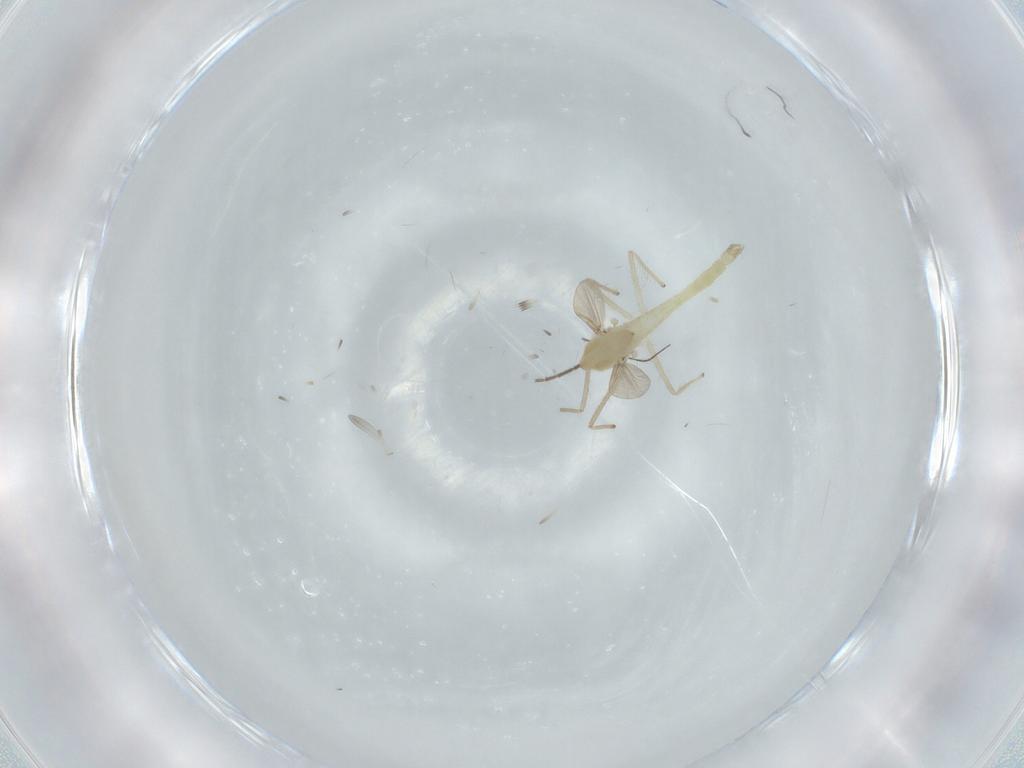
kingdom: Animalia
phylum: Arthropoda
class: Insecta
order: Diptera
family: Chironomidae
